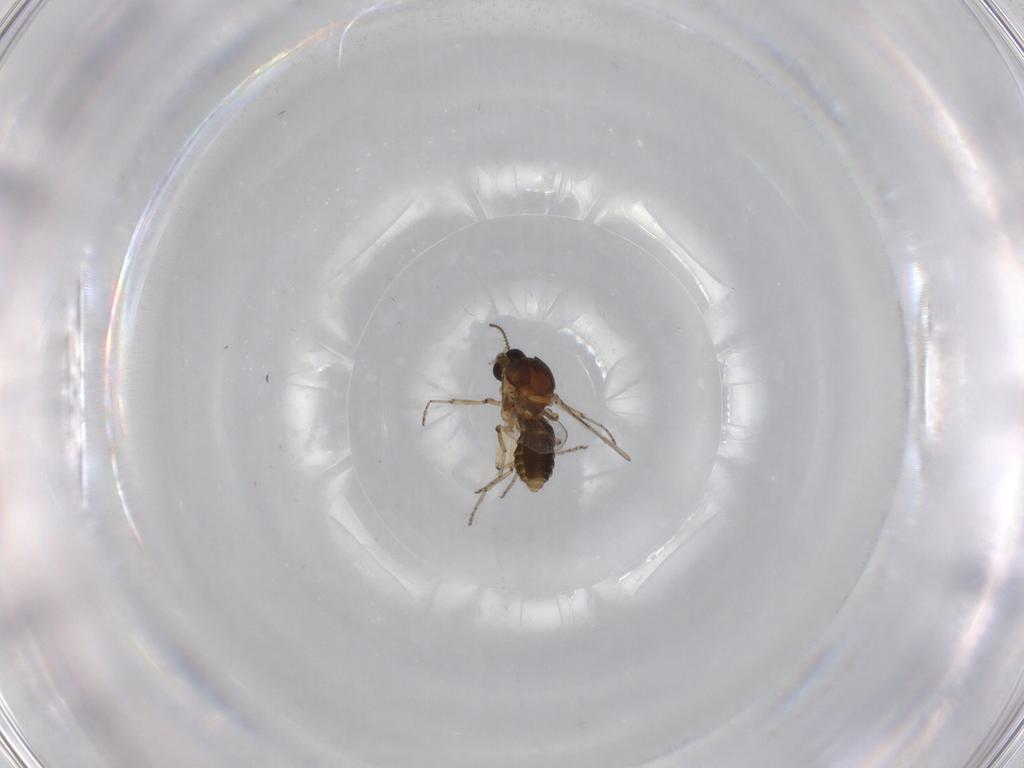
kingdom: Animalia
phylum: Arthropoda
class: Insecta
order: Diptera
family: Ceratopogonidae
